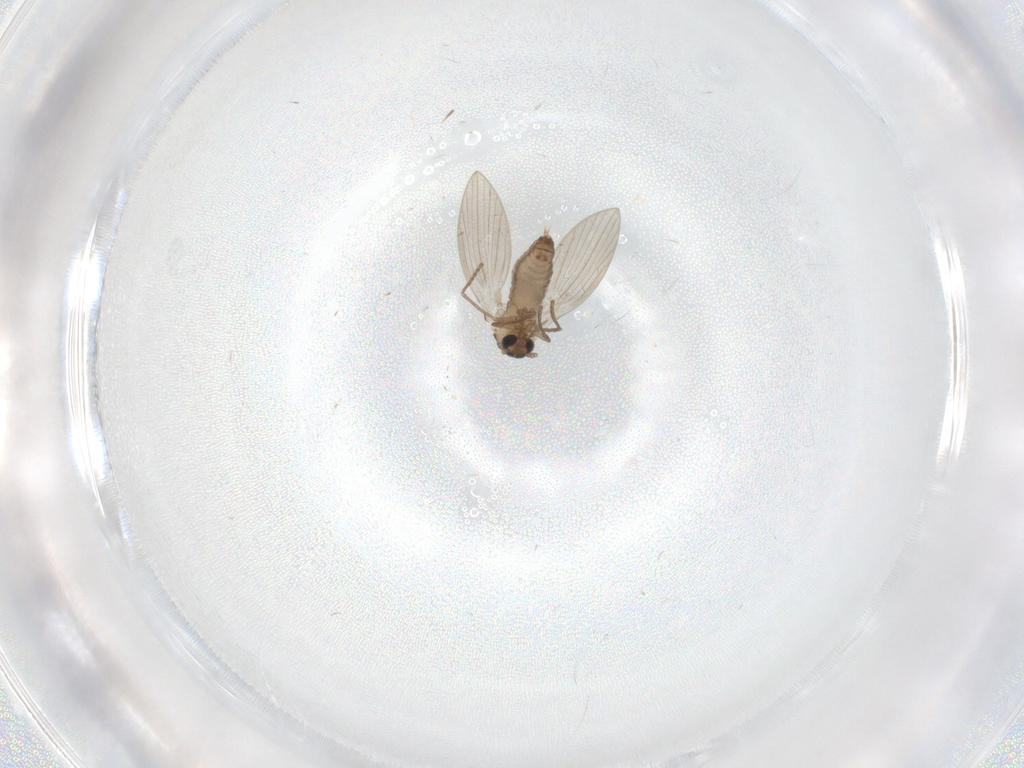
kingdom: Animalia
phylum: Arthropoda
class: Insecta
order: Diptera
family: Psychodidae
